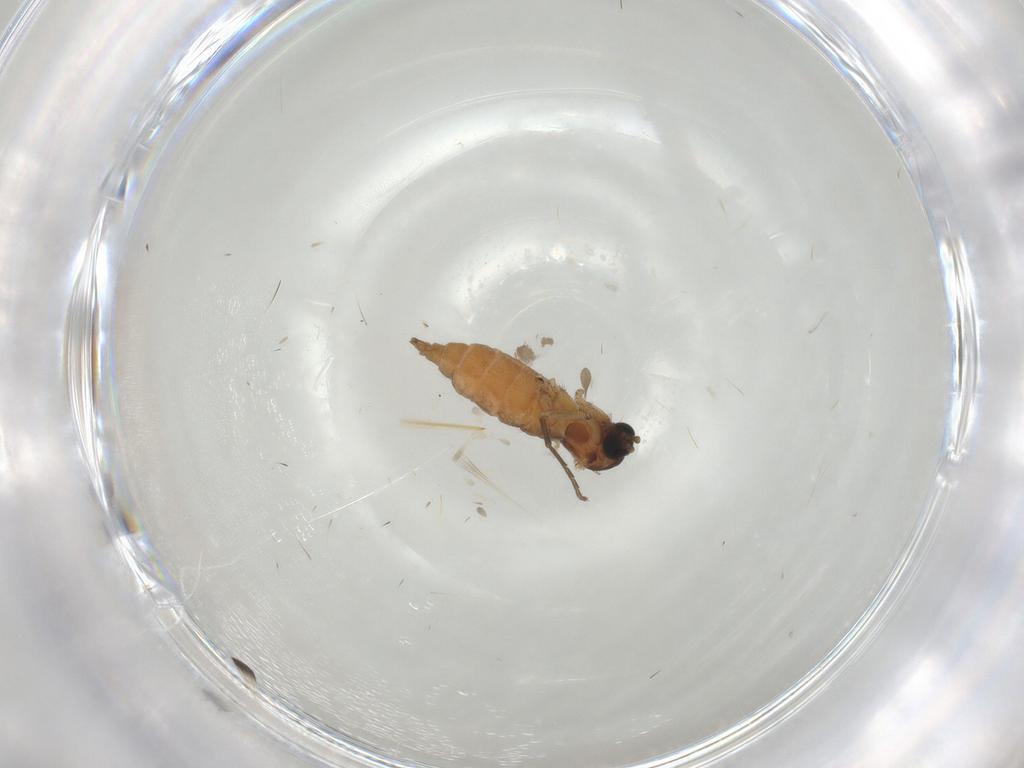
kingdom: Animalia
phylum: Arthropoda
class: Insecta
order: Diptera
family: Sciaridae
